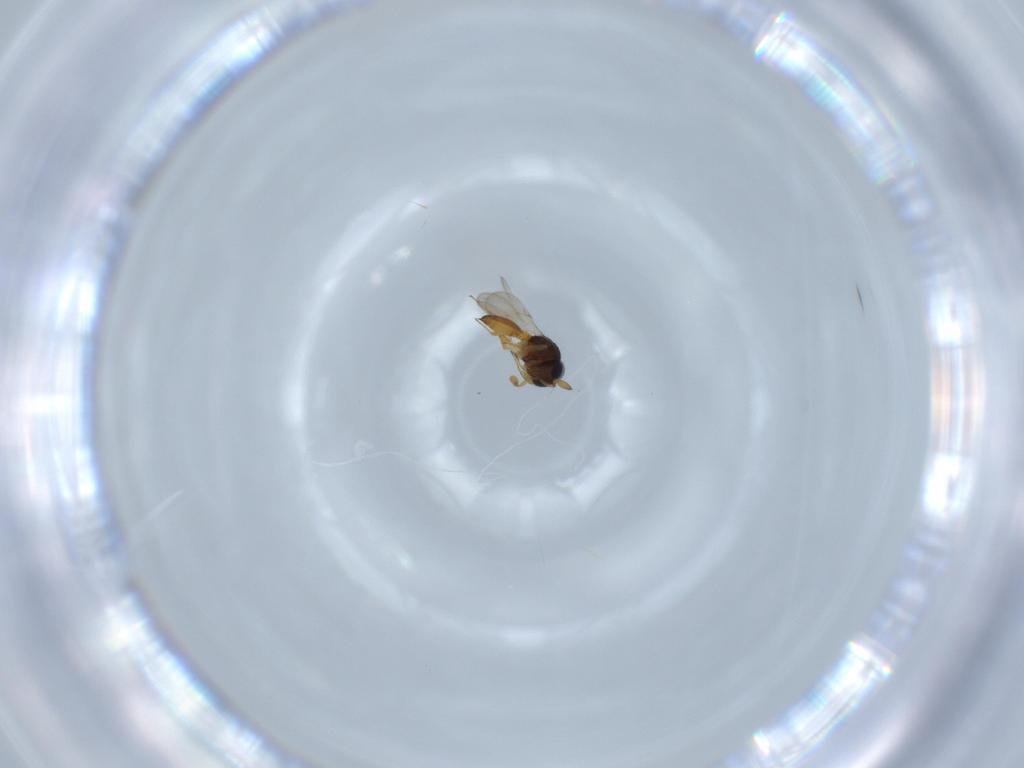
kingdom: Animalia
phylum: Arthropoda
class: Insecta
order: Hymenoptera
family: Scelionidae
